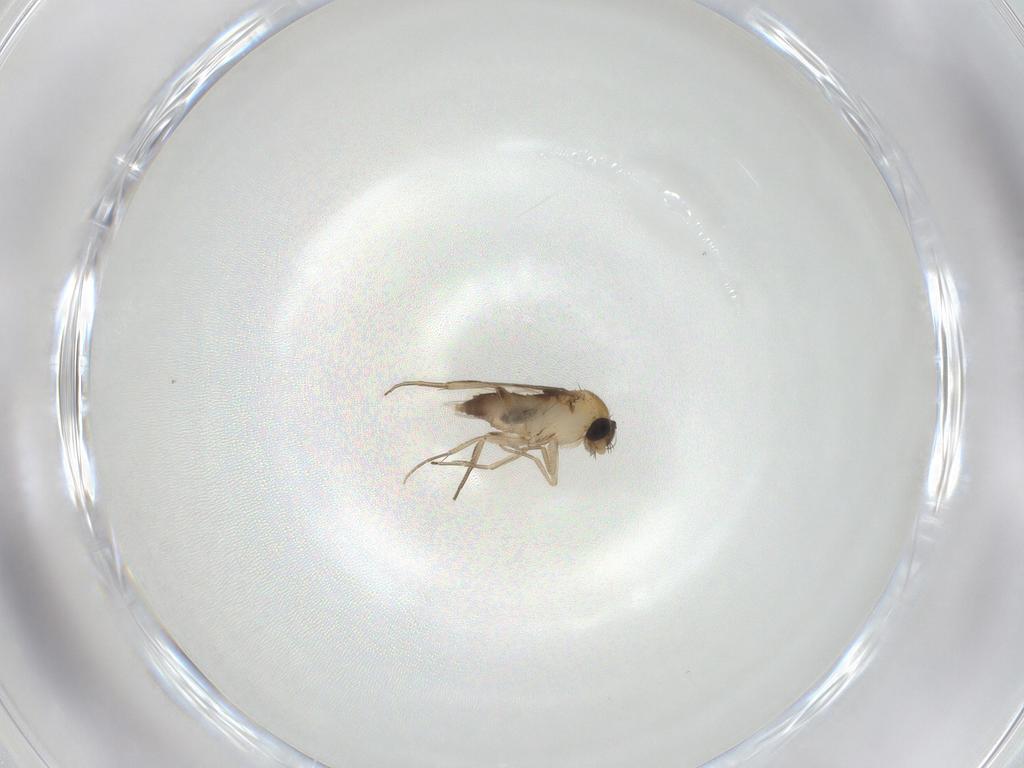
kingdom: Animalia
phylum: Arthropoda
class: Insecta
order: Diptera
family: Phoridae
